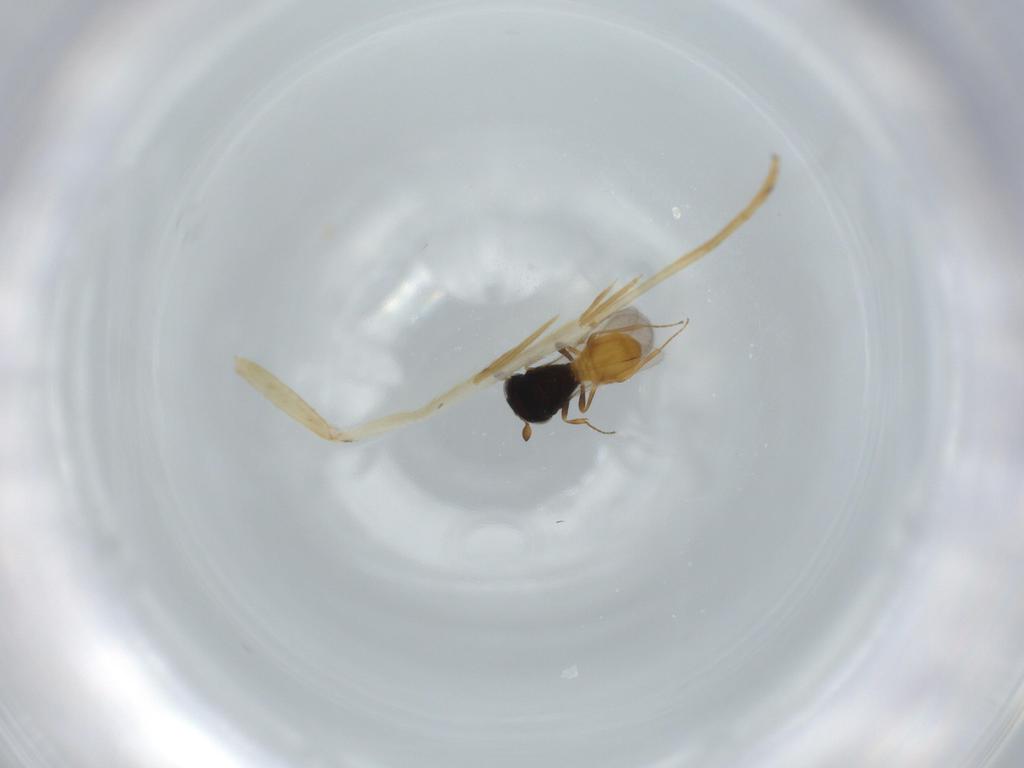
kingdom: Animalia
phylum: Arthropoda
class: Insecta
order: Hymenoptera
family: Scelionidae
